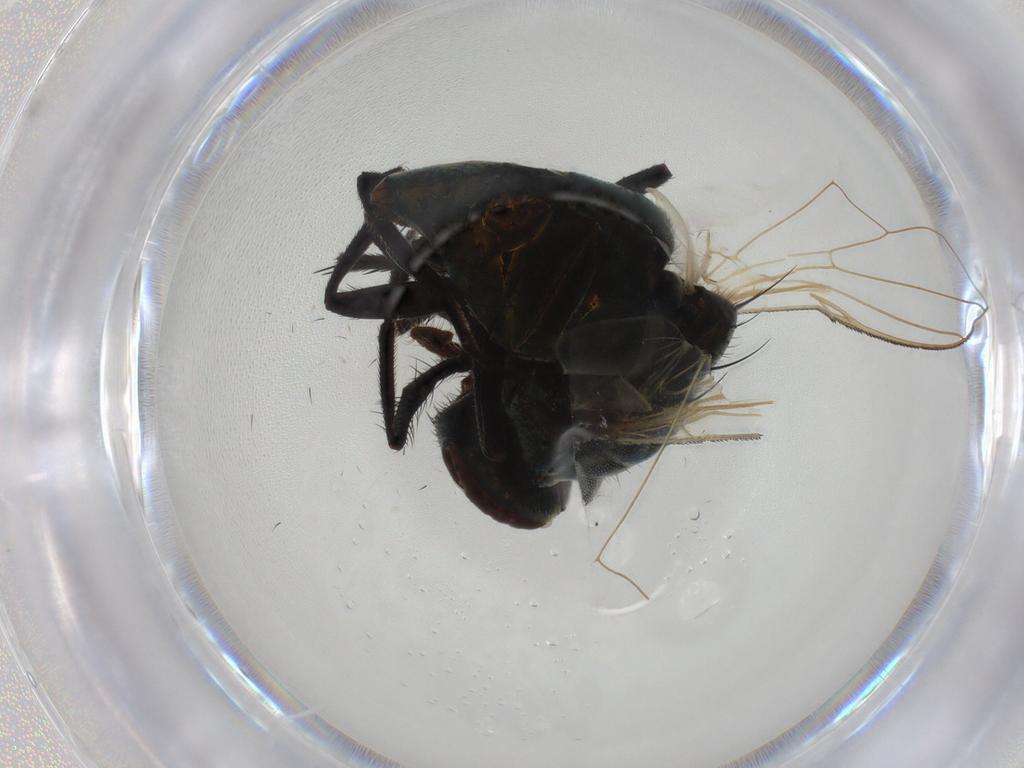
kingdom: Animalia
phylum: Arthropoda
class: Insecta
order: Diptera
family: Muscidae
